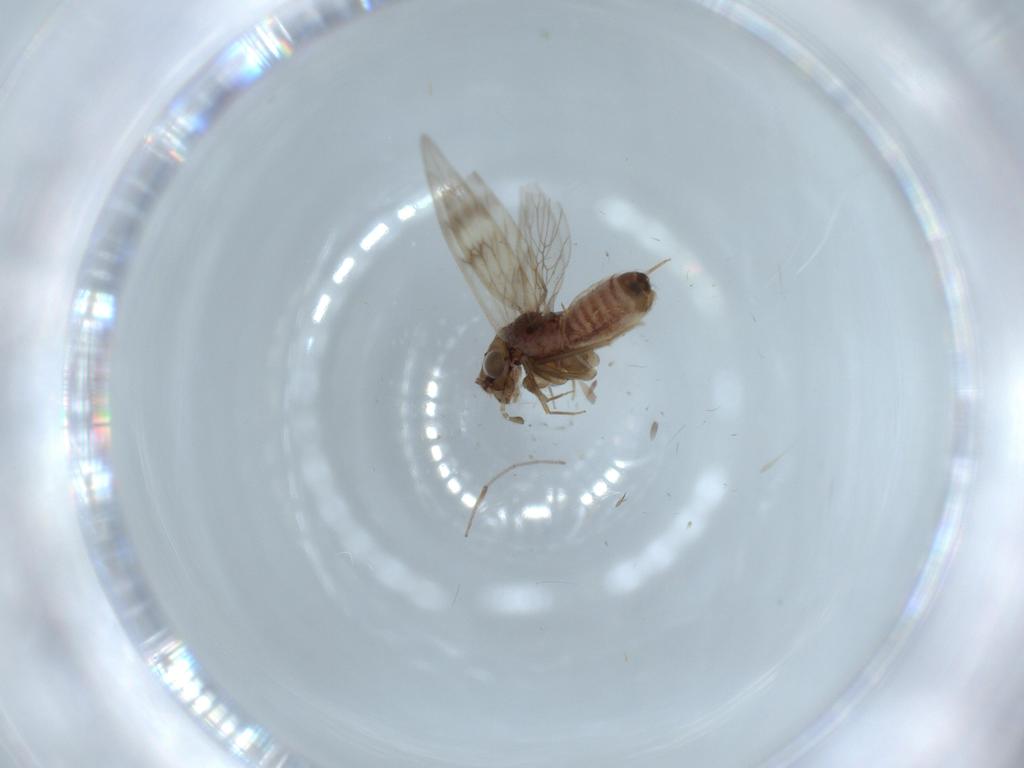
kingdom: Animalia
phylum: Arthropoda
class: Insecta
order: Psocodea
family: Lepidopsocidae
